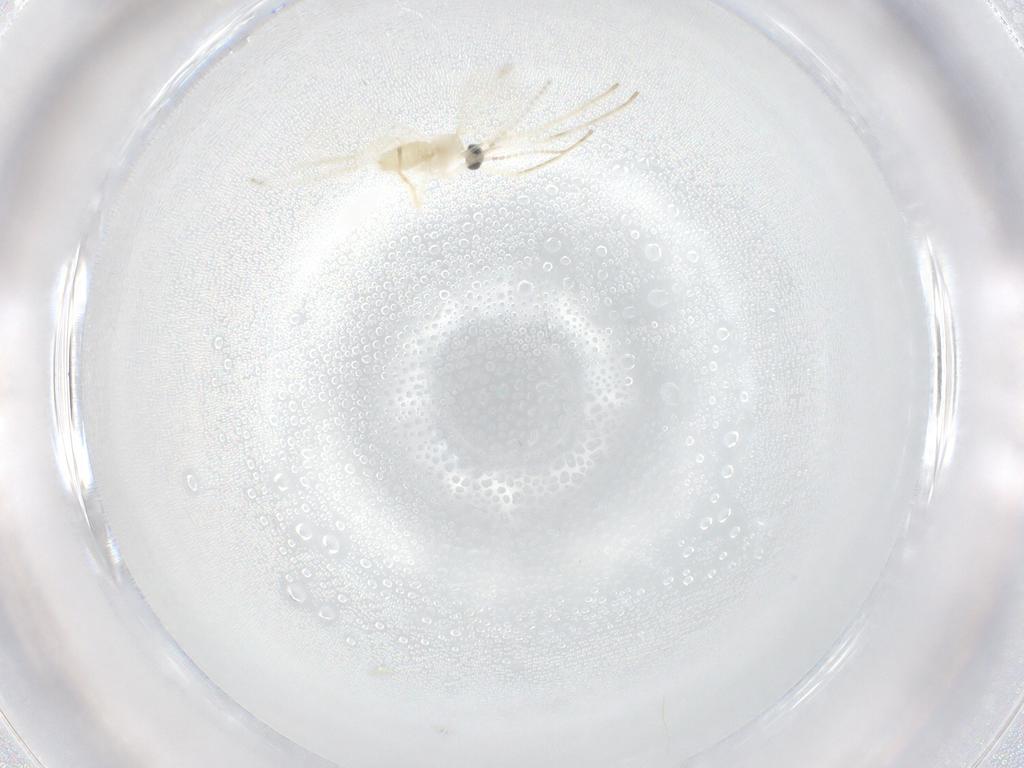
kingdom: Animalia
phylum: Arthropoda
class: Insecta
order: Diptera
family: Cecidomyiidae
